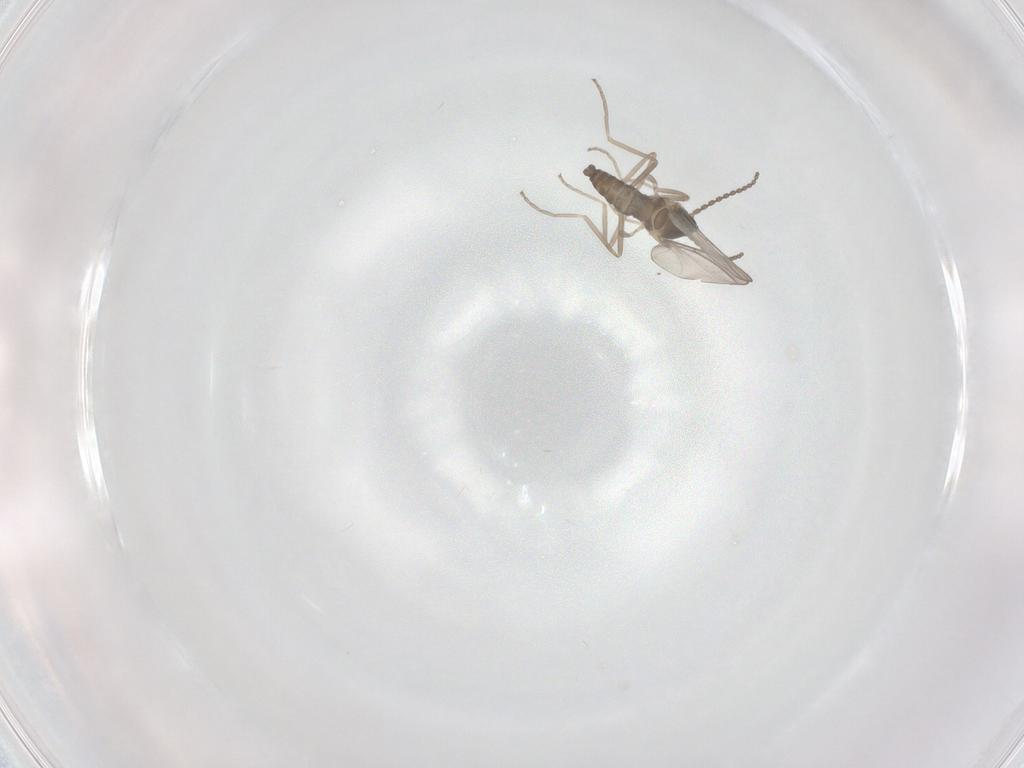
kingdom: Animalia
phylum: Arthropoda
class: Insecta
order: Diptera
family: Cecidomyiidae
